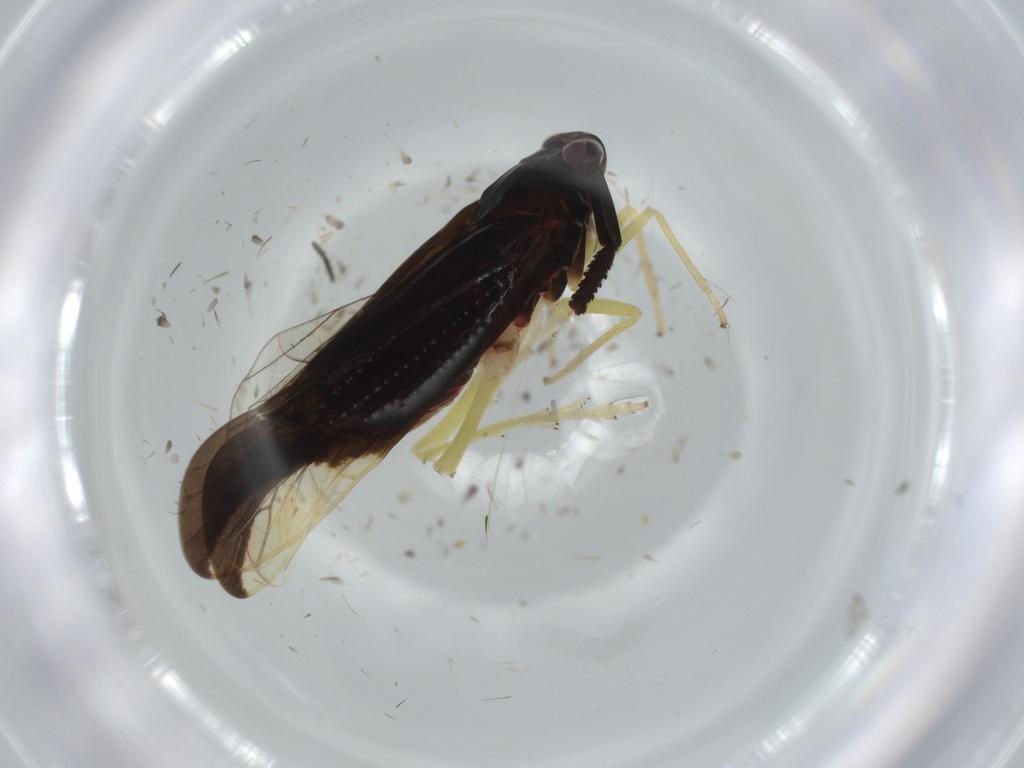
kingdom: Animalia
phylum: Arthropoda
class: Insecta
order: Hemiptera
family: Delphacidae
